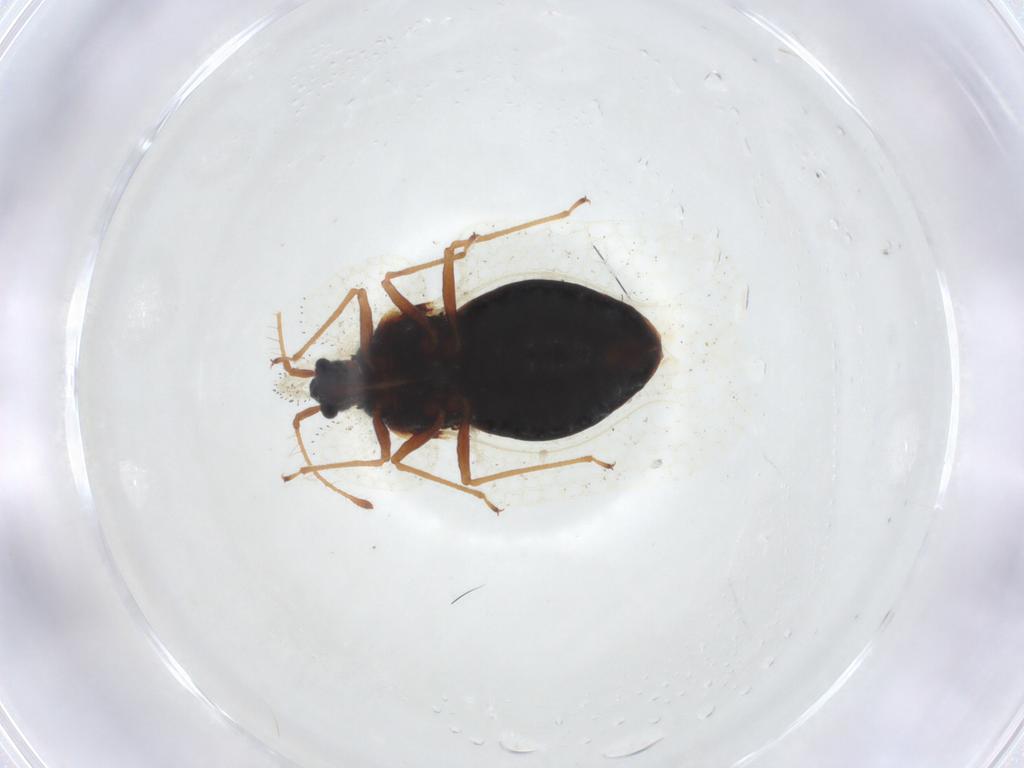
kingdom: Animalia
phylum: Arthropoda
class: Insecta
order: Hemiptera
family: Tingidae
